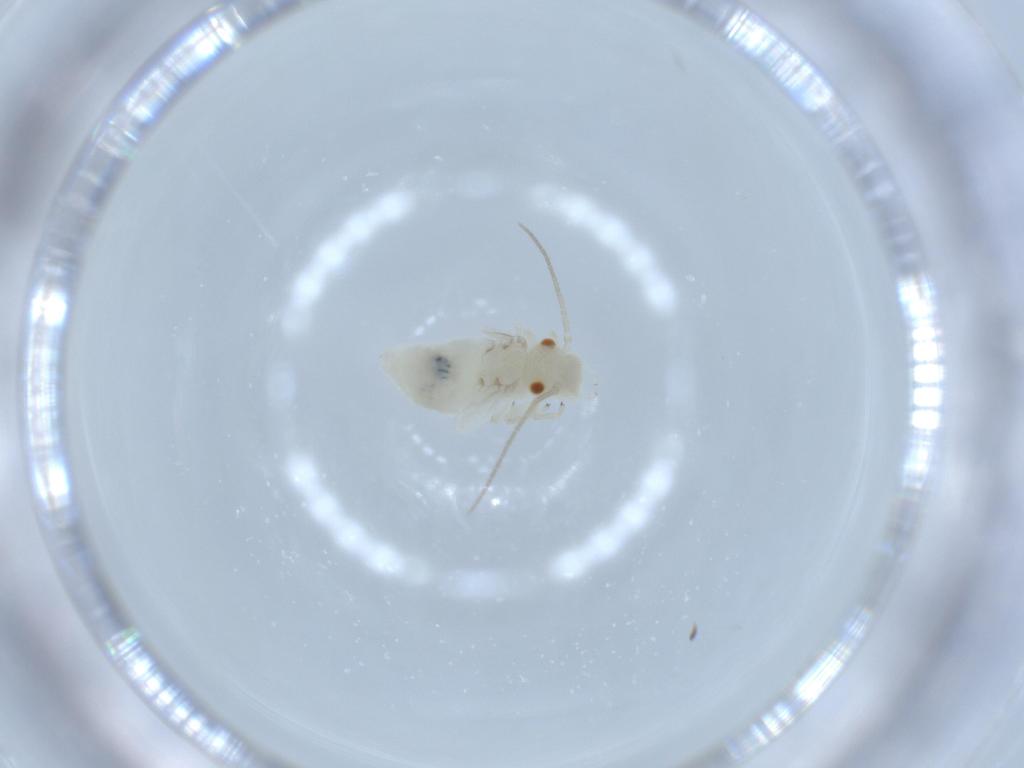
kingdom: Animalia
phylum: Arthropoda
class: Insecta
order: Psocodea
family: Caeciliusidae
